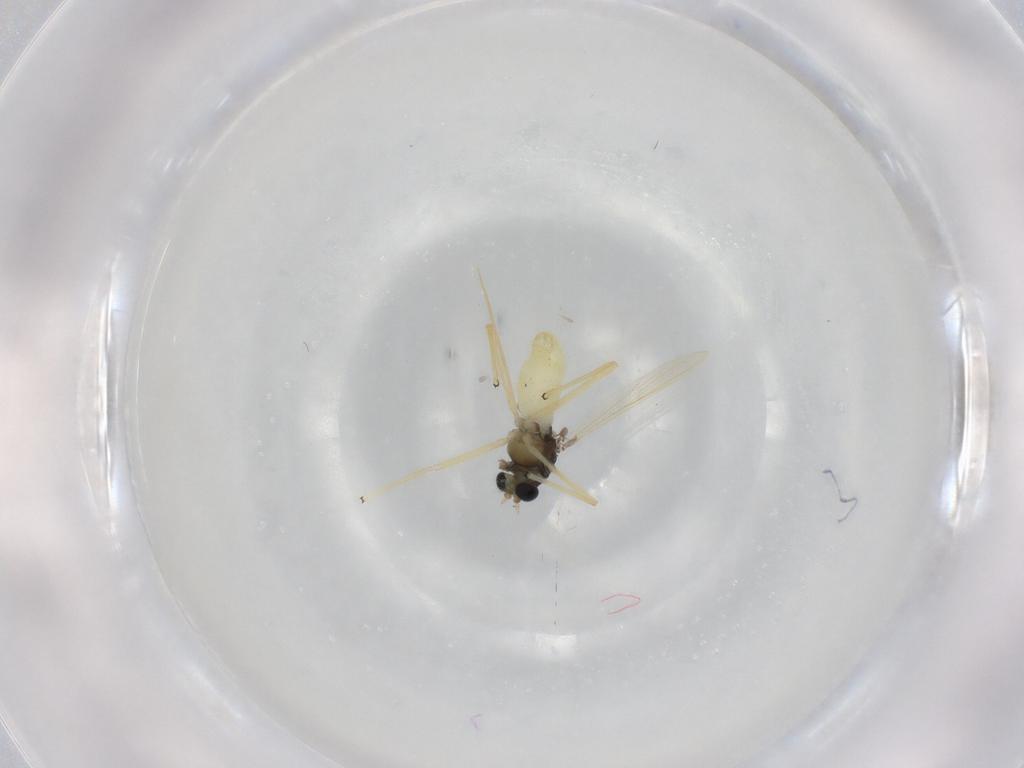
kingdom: Animalia
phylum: Arthropoda
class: Insecta
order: Diptera
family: Chironomidae
